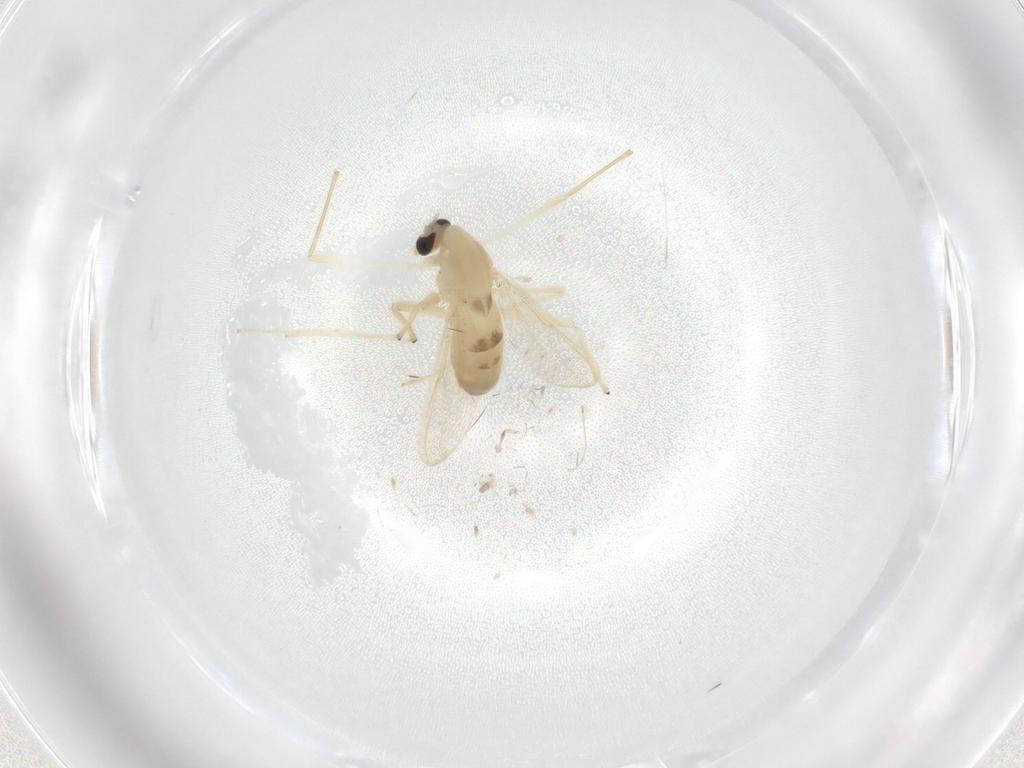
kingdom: Animalia
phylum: Arthropoda
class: Insecta
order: Diptera
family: Chironomidae
